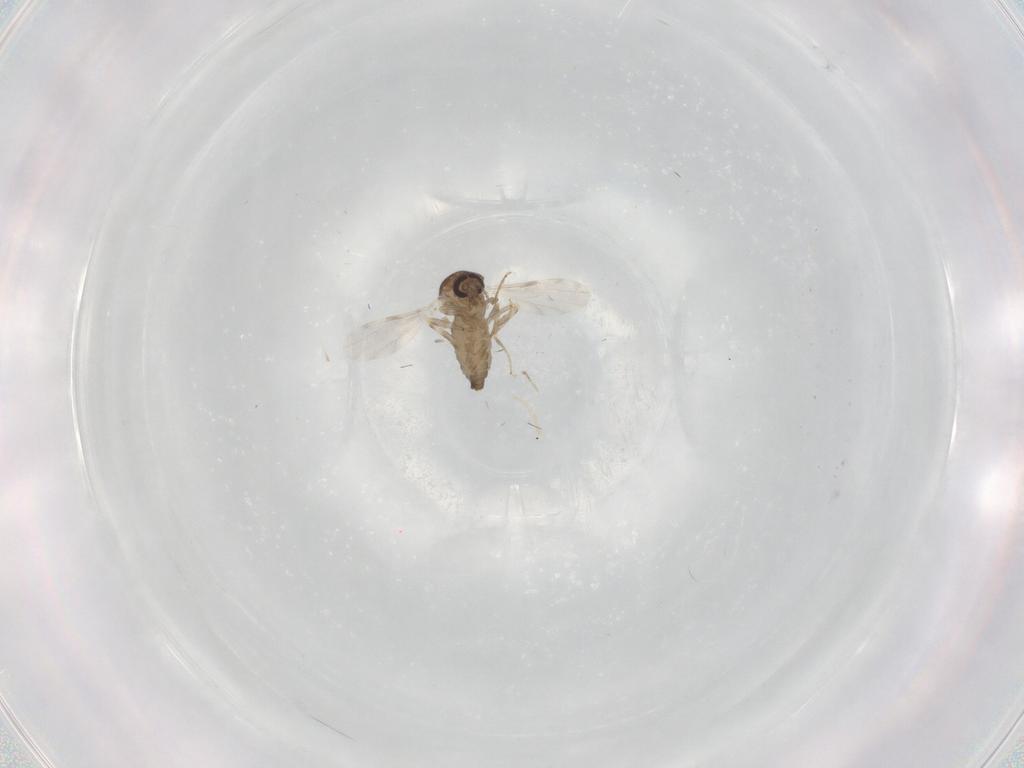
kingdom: Animalia
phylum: Arthropoda
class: Insecta
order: Diptera
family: Ceratopogonidae
